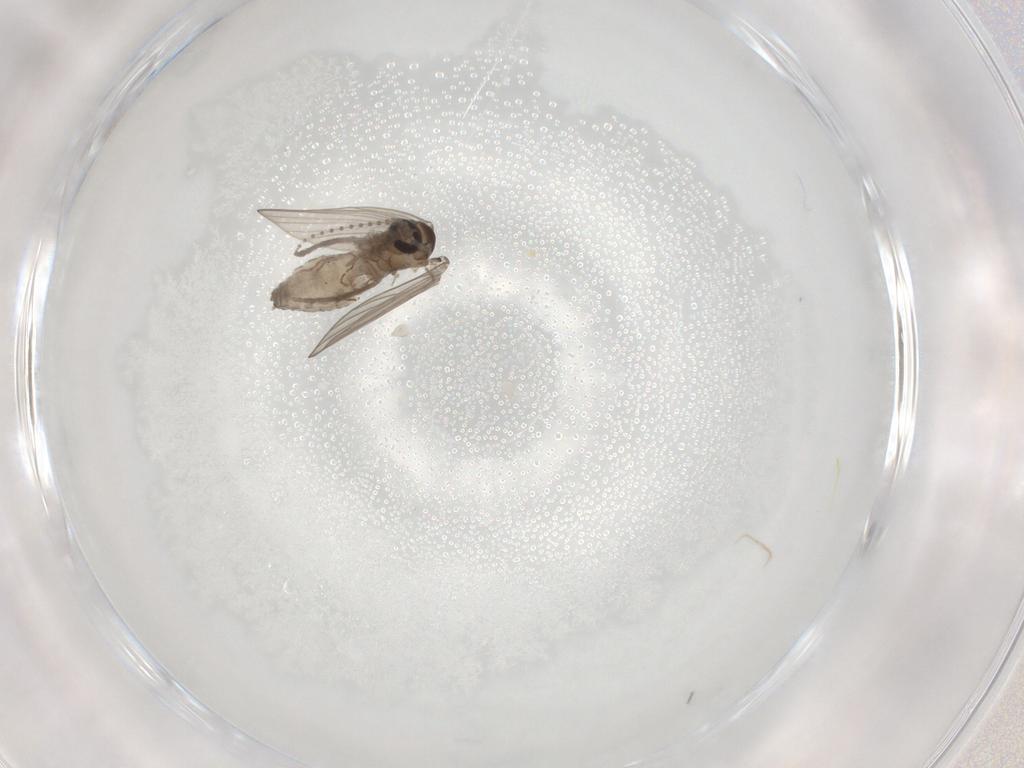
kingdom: Animalia
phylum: Arthropoda
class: Insecta
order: Diptera
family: Psychodidae
